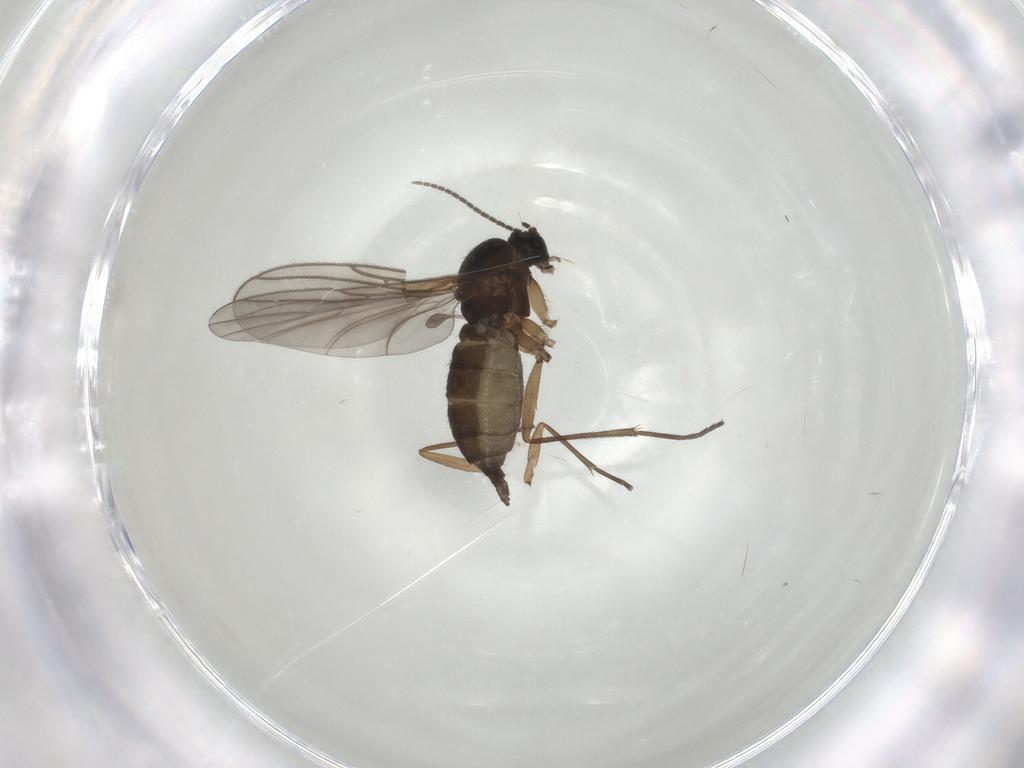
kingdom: Animalia
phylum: Arthropoda
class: Insecta
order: Diptera
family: Sciaridae
